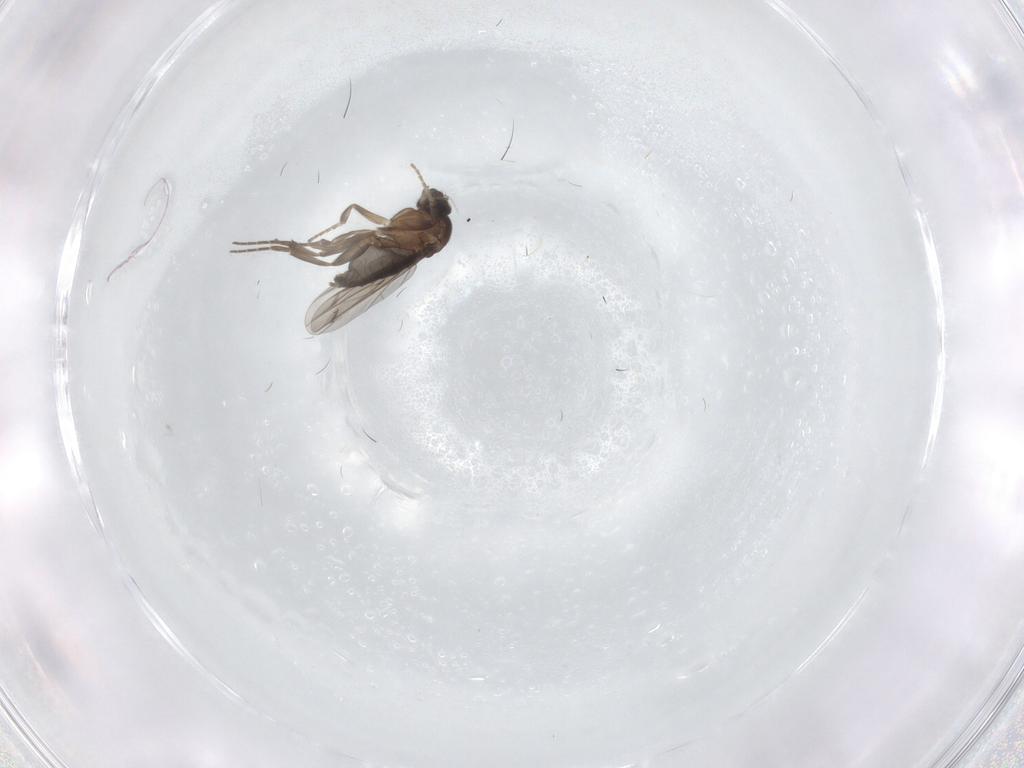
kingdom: Animalia
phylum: Arthropoda
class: Insecta
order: Diptera
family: Phoridae
